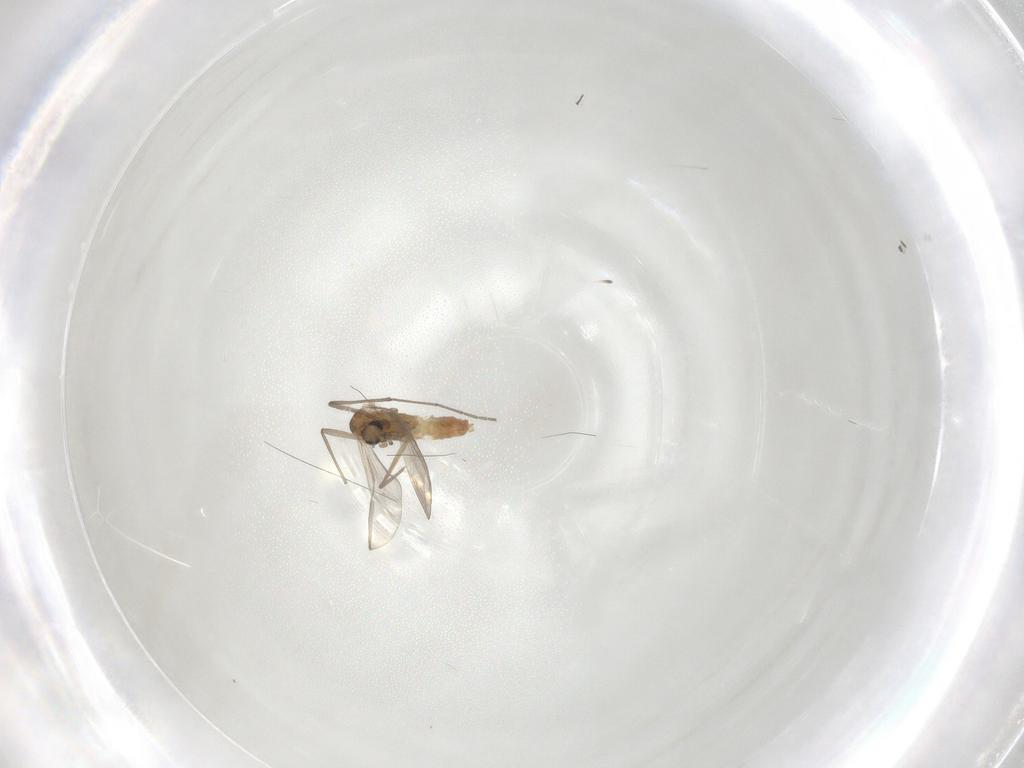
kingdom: Animalia
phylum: Arthropoda
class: Insecta
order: Diptera
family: Chironomidae
